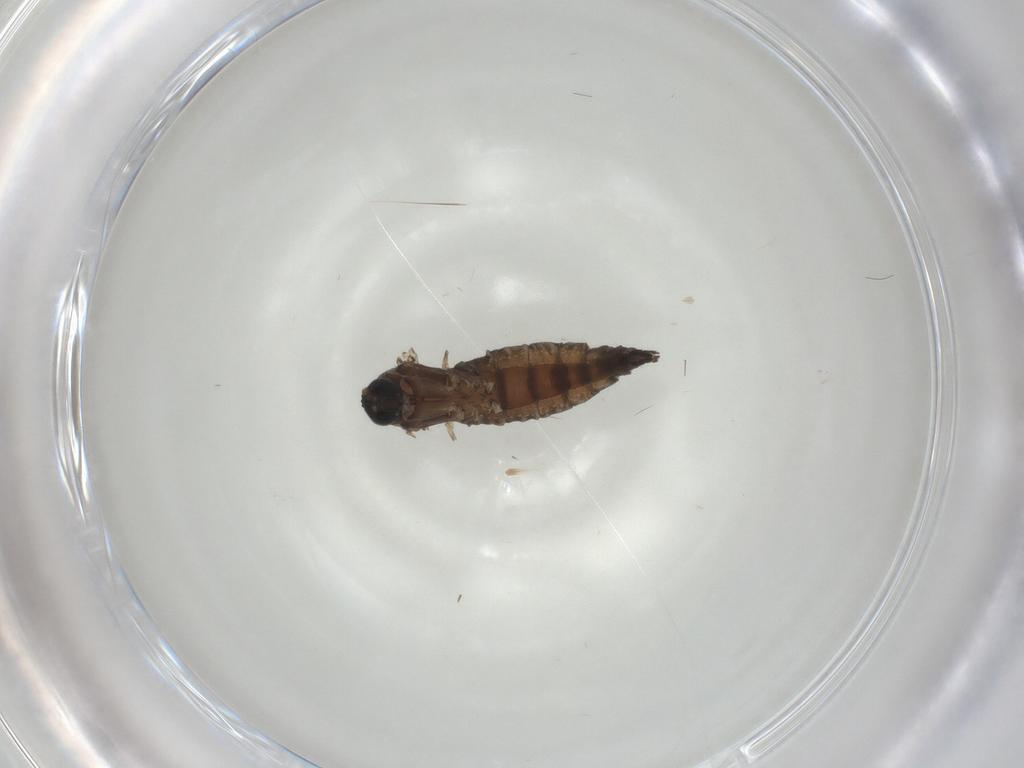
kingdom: Animalia
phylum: Arthropoda
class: Insecta
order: Diptera
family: Sciaridae
